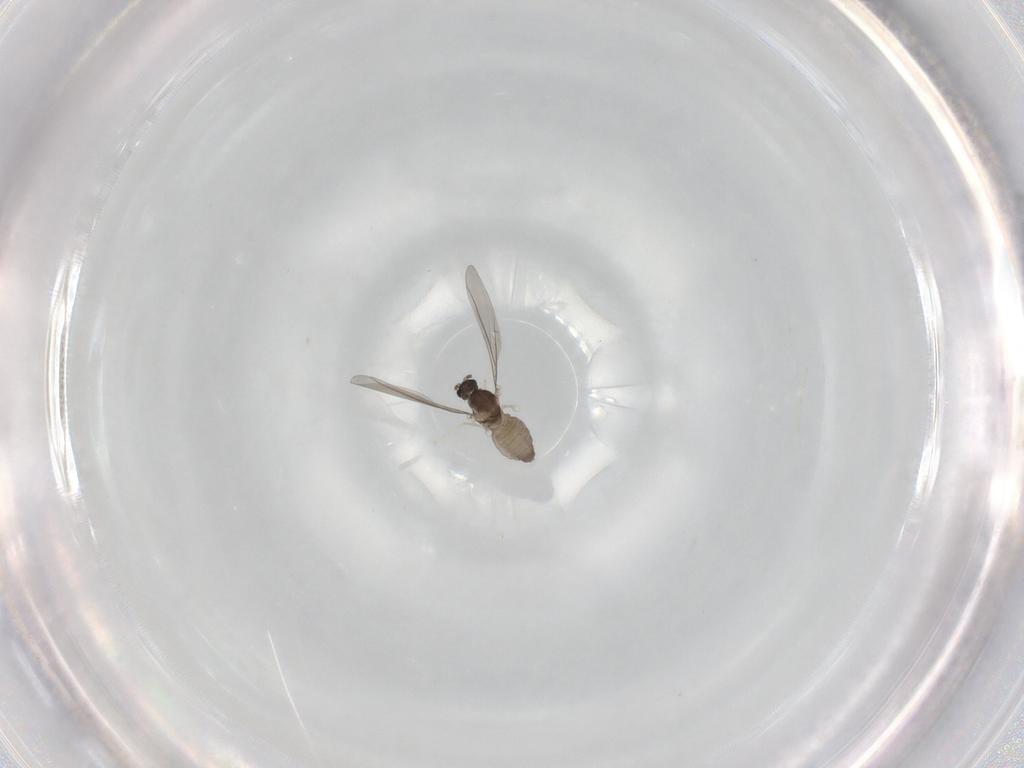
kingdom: Animalia
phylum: Arthropoda
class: Insecta
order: Diptera
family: Cecidomyiidae
